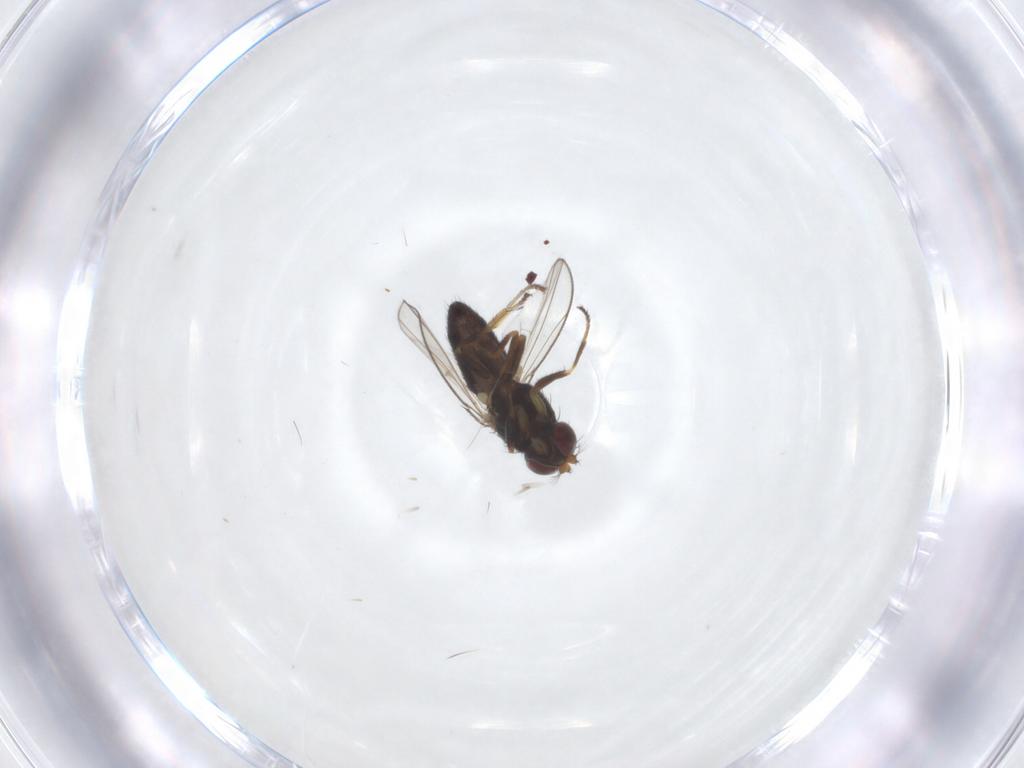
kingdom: Animalia
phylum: Arthropoda
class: Insecta
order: Diptera
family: Ephydridae
